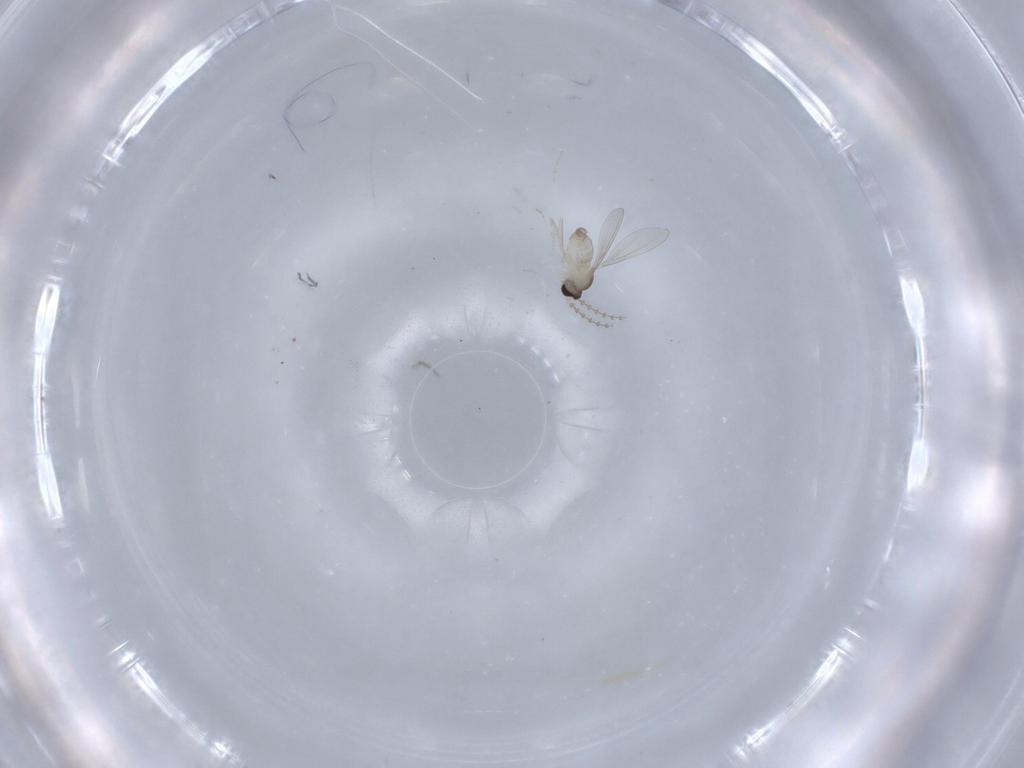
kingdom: Animalia
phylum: Arthropoda
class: Insecta
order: Diptera
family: Cecidomyiidae
